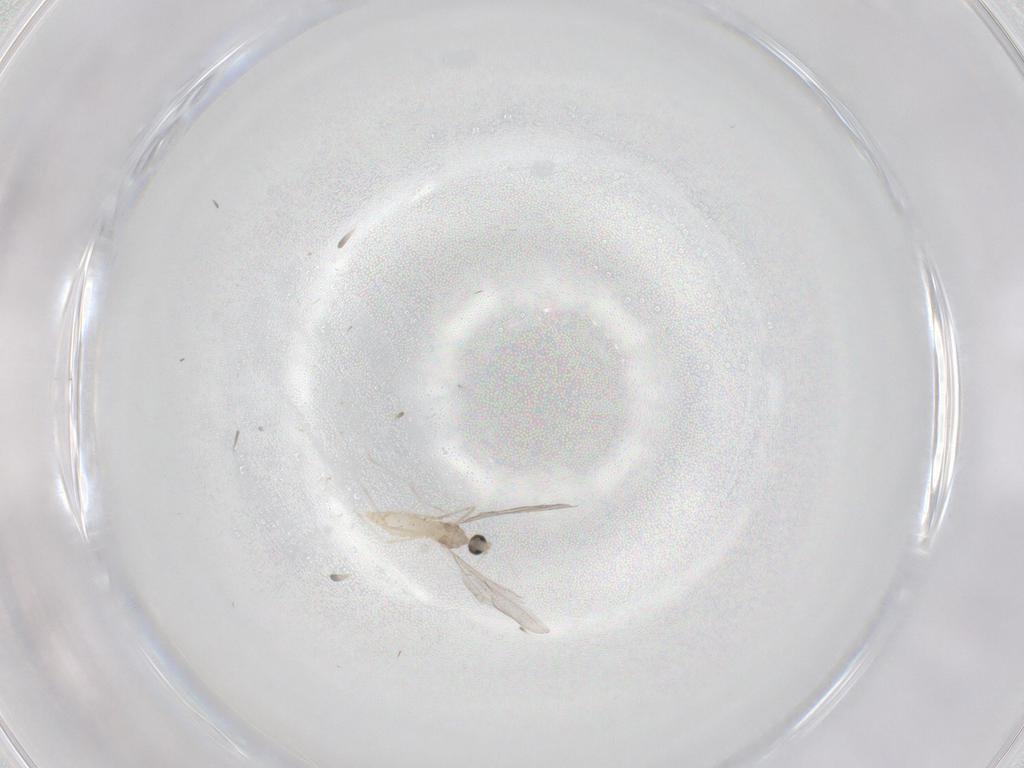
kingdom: Animalia
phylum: Arthropoda
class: Insecta
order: Diptera
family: Cecidomyiidae
